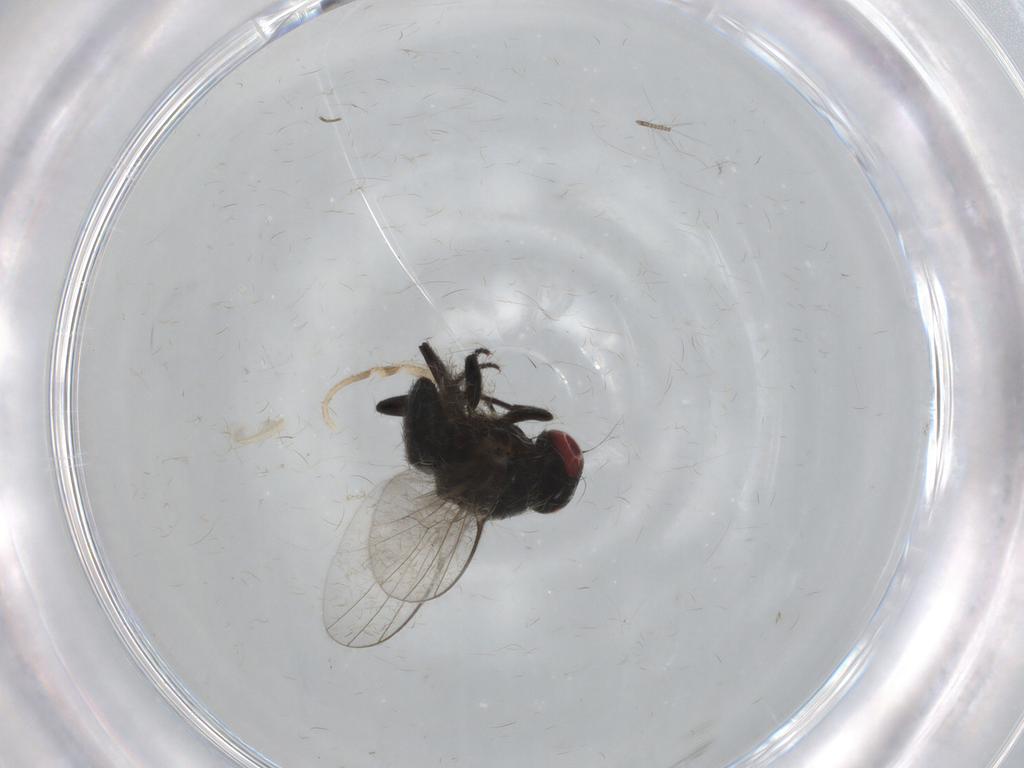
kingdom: Animalia
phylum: Arthropoda
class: Insecta
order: Diptera
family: Agromyzidae
